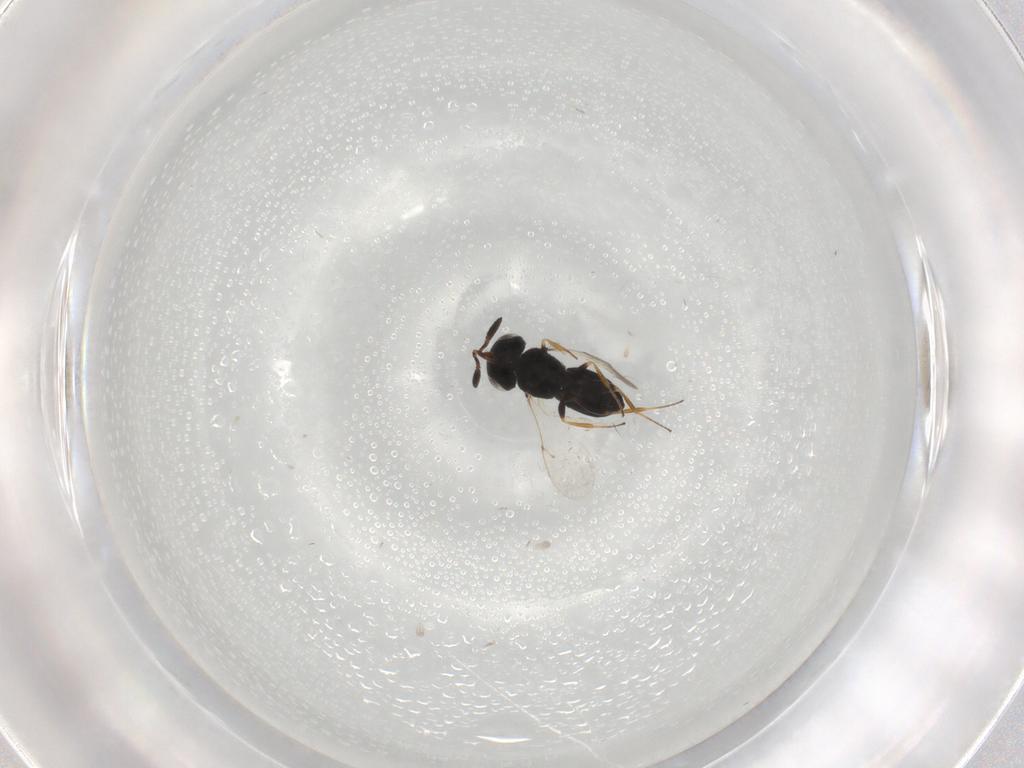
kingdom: Animalia
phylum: Arthropoda
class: Insecta
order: Coleoptera
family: Curculionidae
